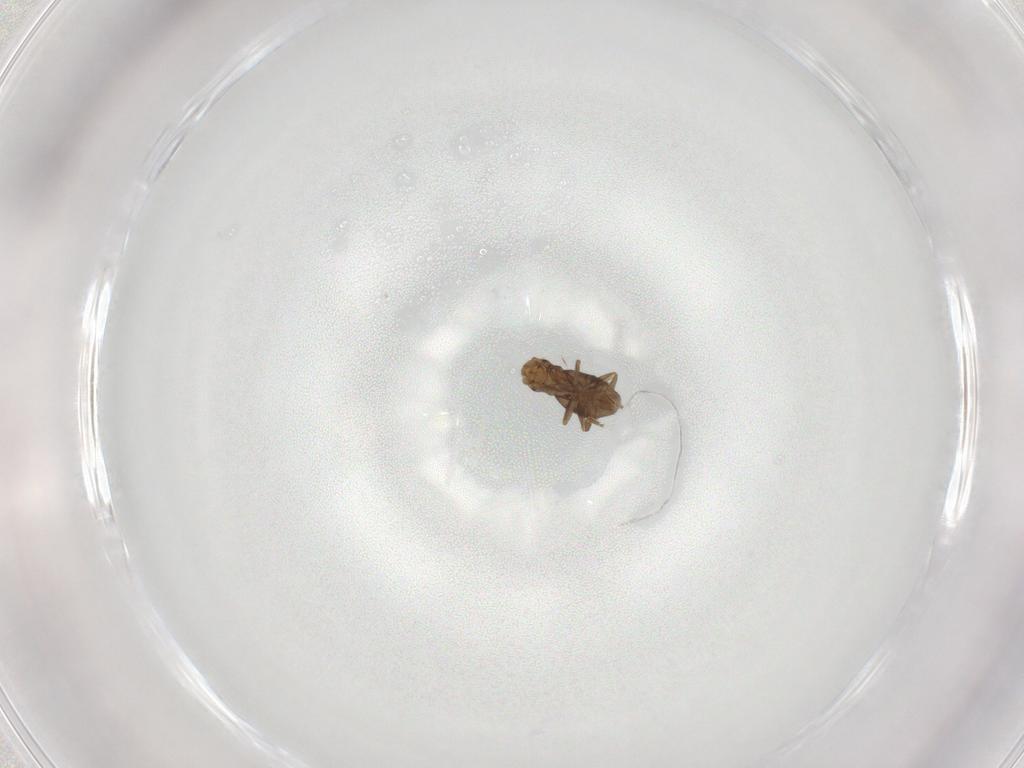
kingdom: Animalia
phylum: Arthropoda
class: Insecta
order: Diptera
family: Phoridae
